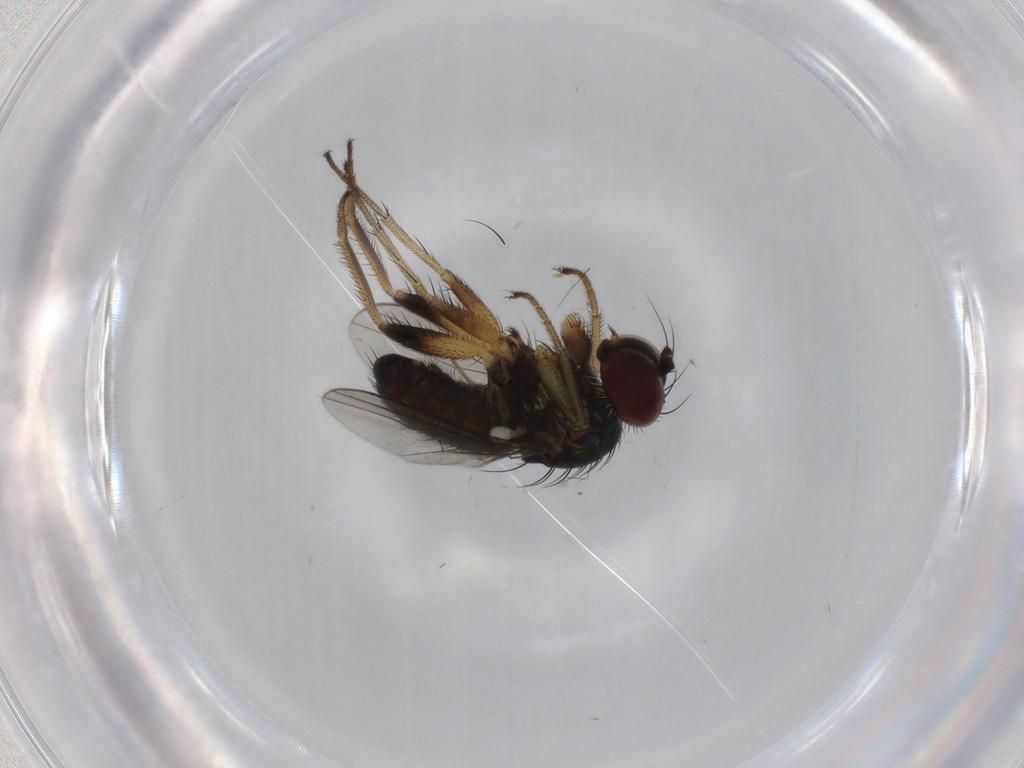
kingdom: Animalia
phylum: Arthropoda
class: Insecta
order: Diptera
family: Dolichopodidae
